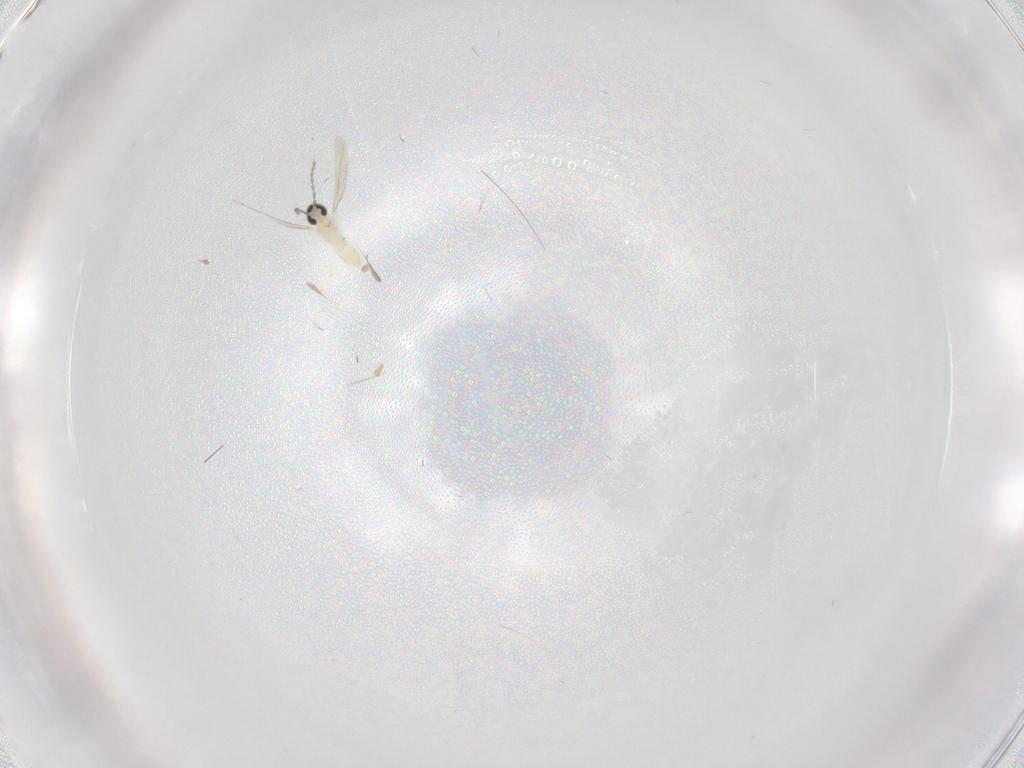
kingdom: Animalia
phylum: Arthropoda
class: Insecta
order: Diptera
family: Cecidomyiidae
